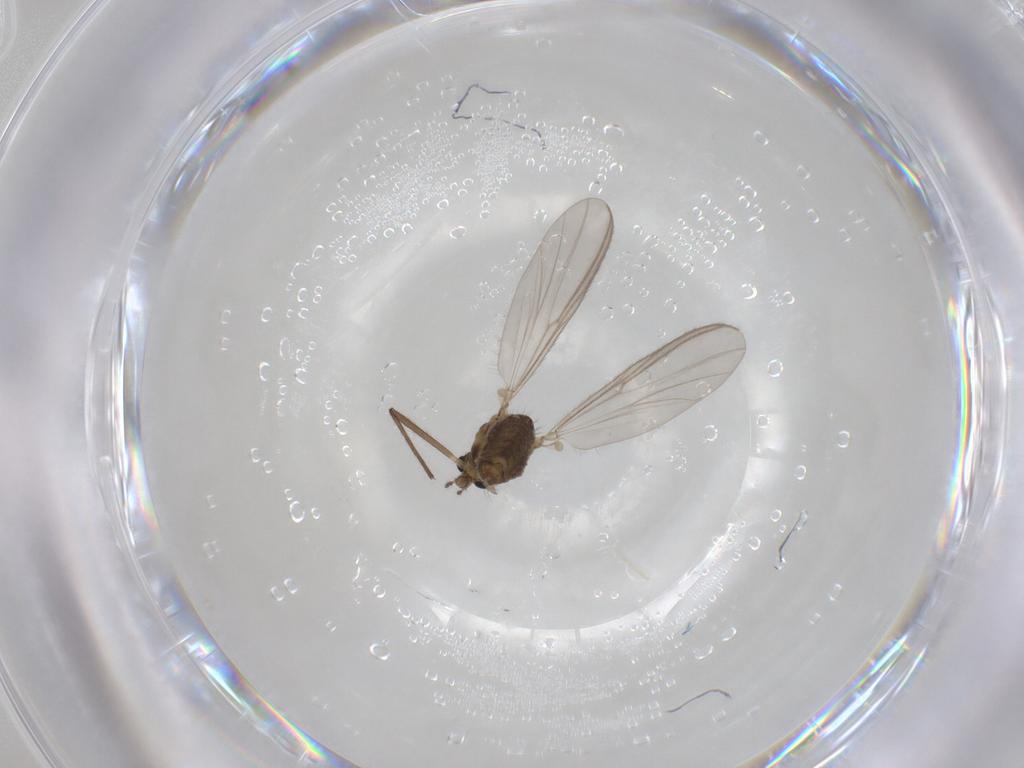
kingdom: Animalia
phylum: Arthropoda
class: Insecta
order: Diptera
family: Chironomidae
